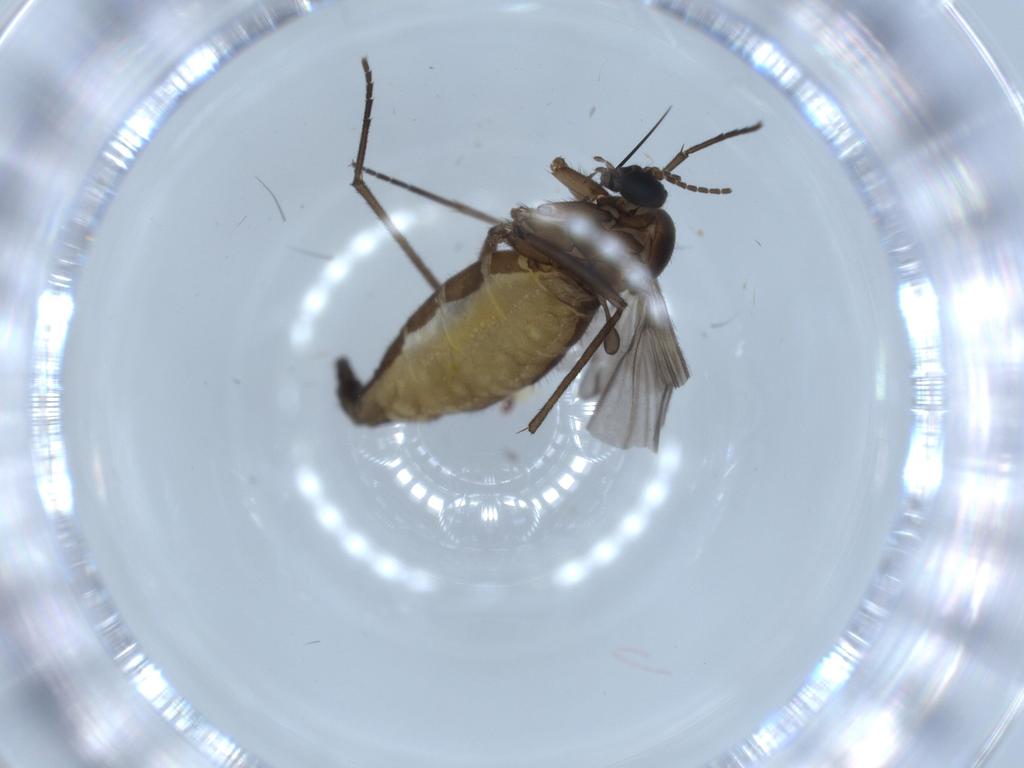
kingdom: Animalia
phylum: Arthropoda
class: Insecta
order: Diptera
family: Sciaridae
